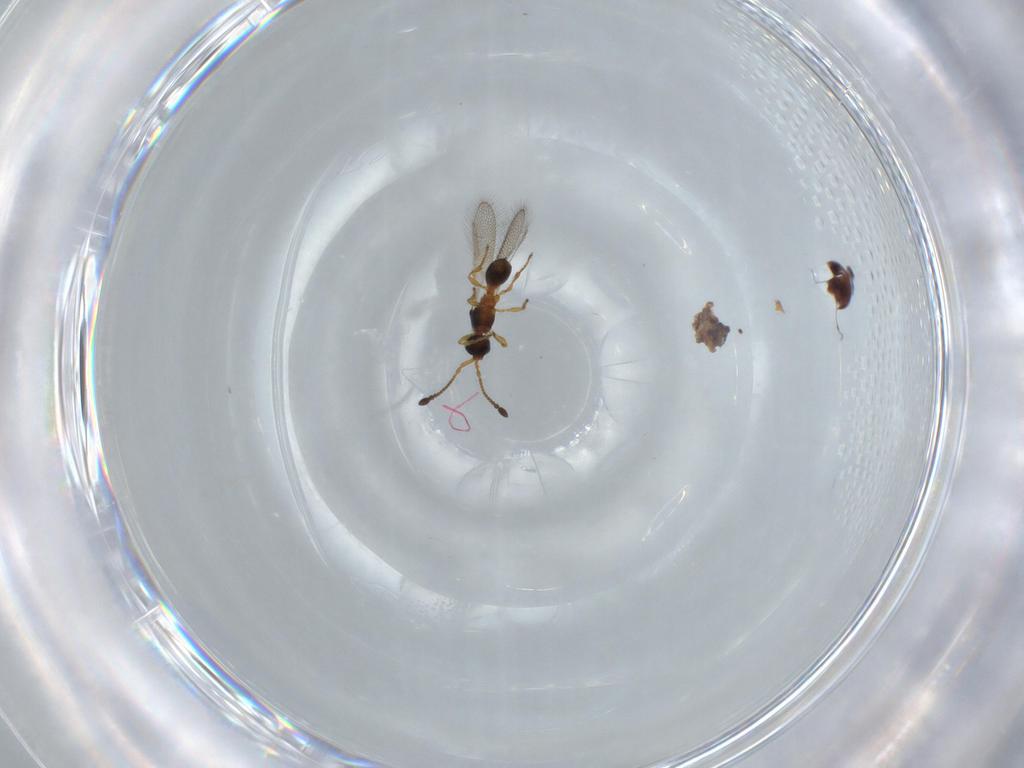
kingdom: Animalia
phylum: Arthropoda
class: Insecta
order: Hymenoptera
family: Diapriidae
